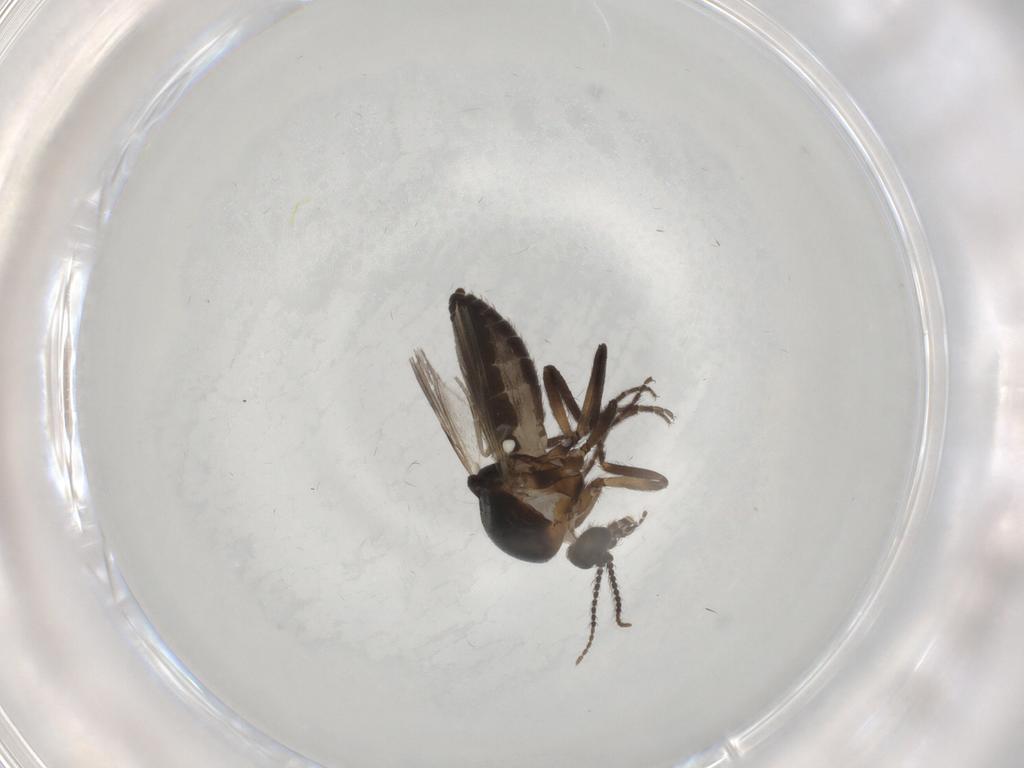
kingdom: Animalia
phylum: Arthropoda
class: Insecta
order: Diptera
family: Ceratopogonidae
